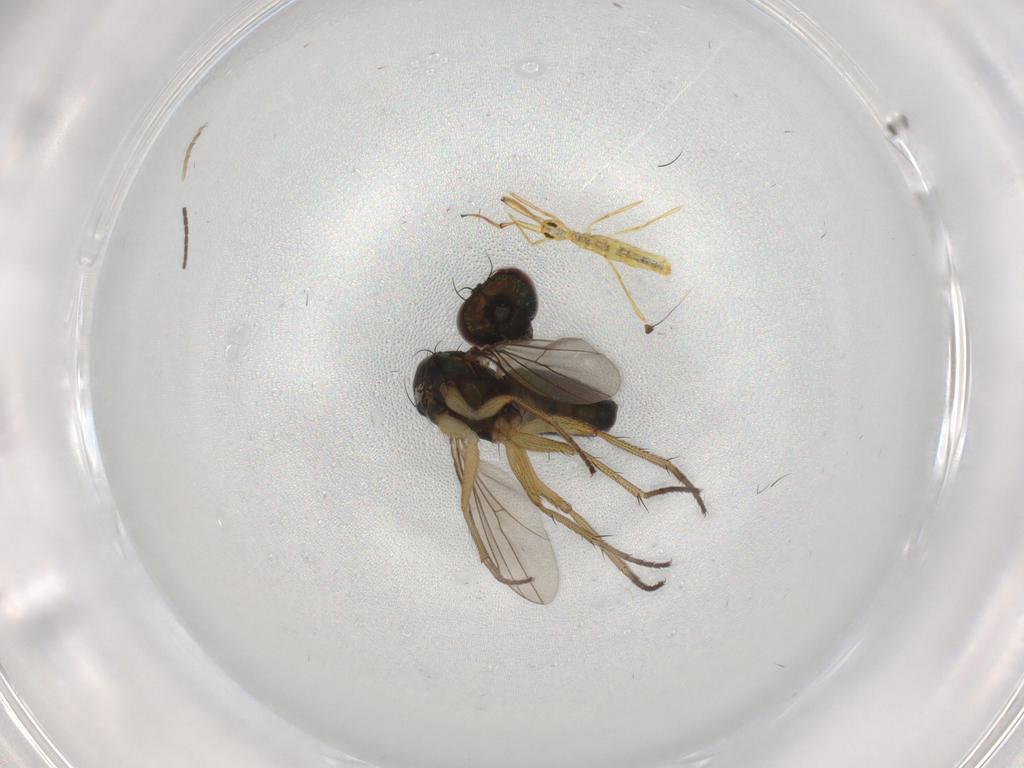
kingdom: Animalia
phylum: Arthropoda
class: Insecta
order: Diptera
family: Sciaridae
